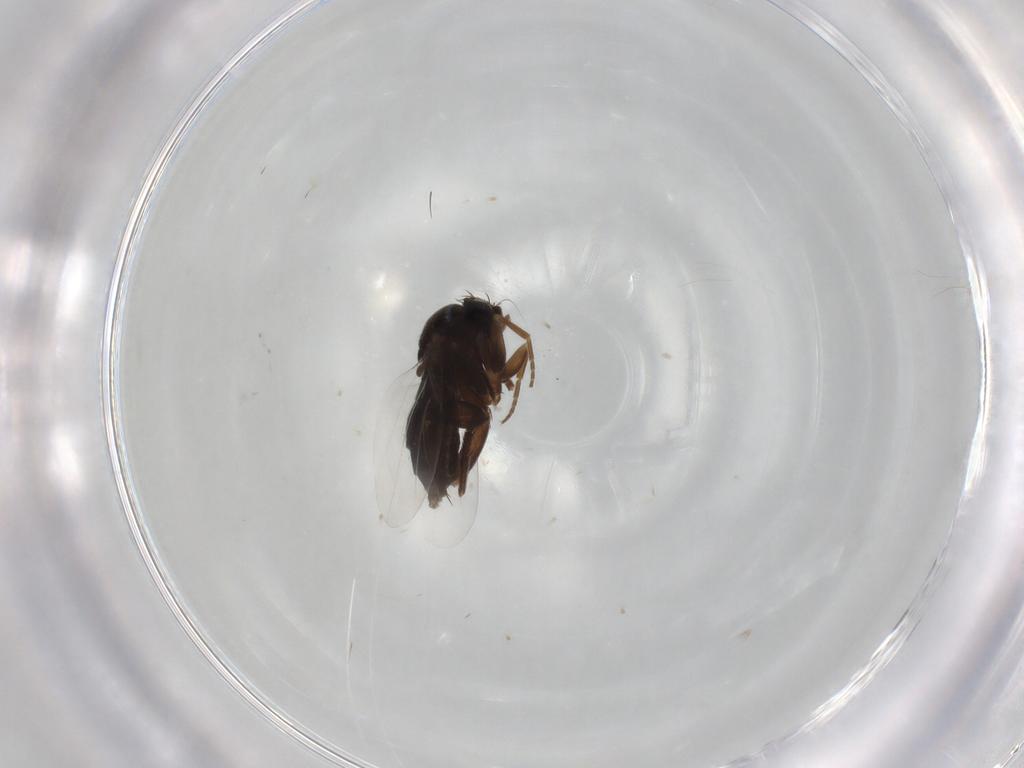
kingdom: Animalia
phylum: Arthropoda
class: Insecta
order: Diptera
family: Phoridae
